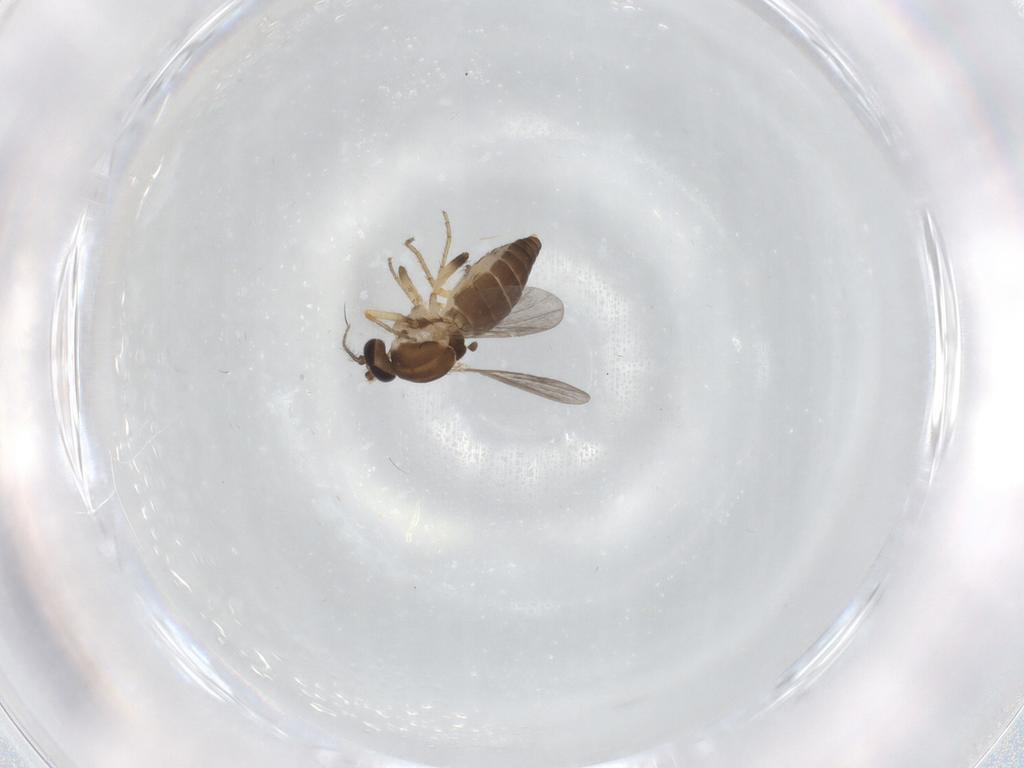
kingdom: Animalia
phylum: Arthropoda
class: Insecta
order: Diptera
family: Ceratopogonidae
